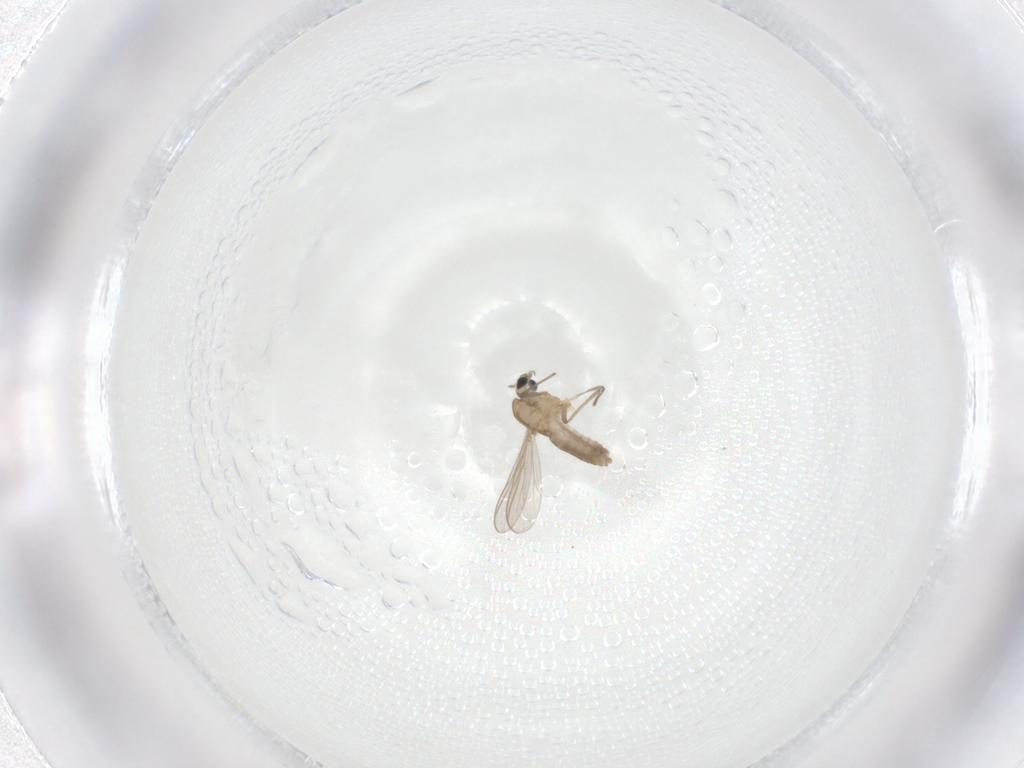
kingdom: Animalia
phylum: Arthropoda
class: Insecta
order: Diptera
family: Chironomidae
